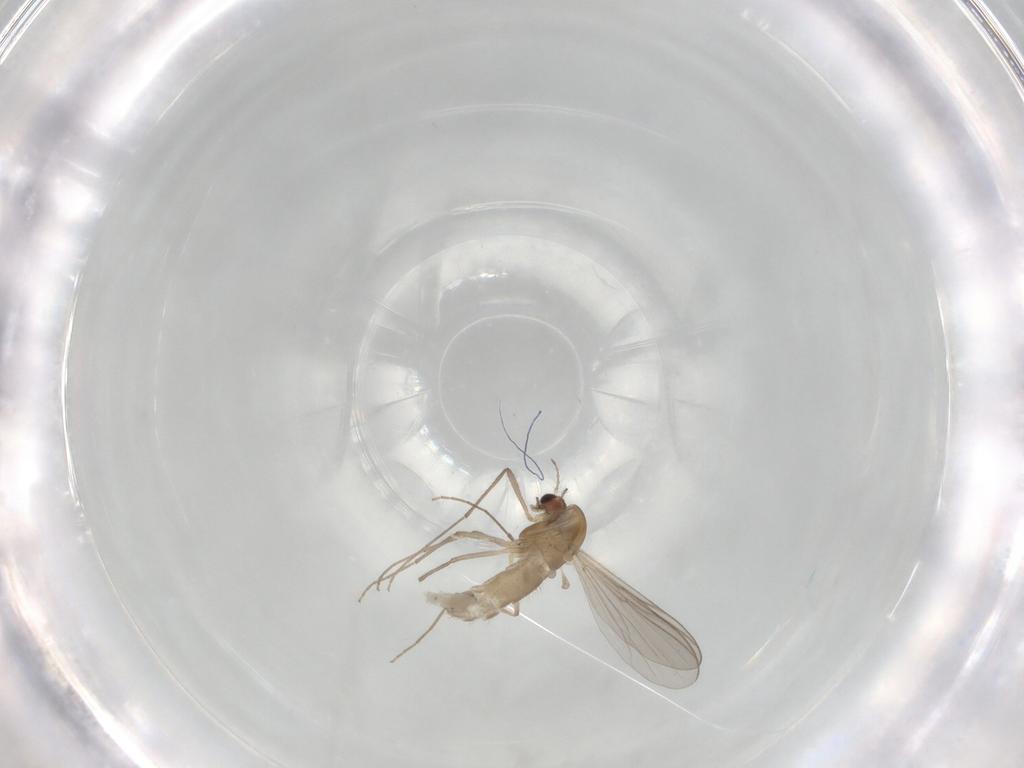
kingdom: Animalia
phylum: Arthropoda
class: Insecta
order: Diptera
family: Chironomidae
